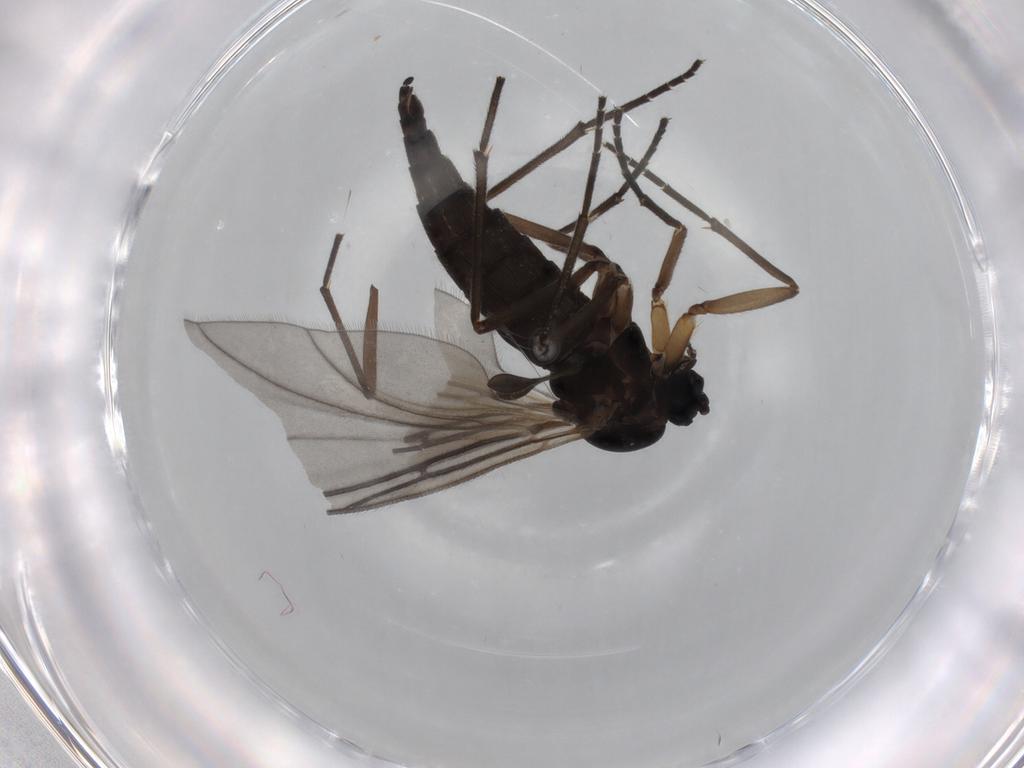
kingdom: Animalia
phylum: Arthropoda
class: Insecta
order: Diptera
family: Sciaridae
